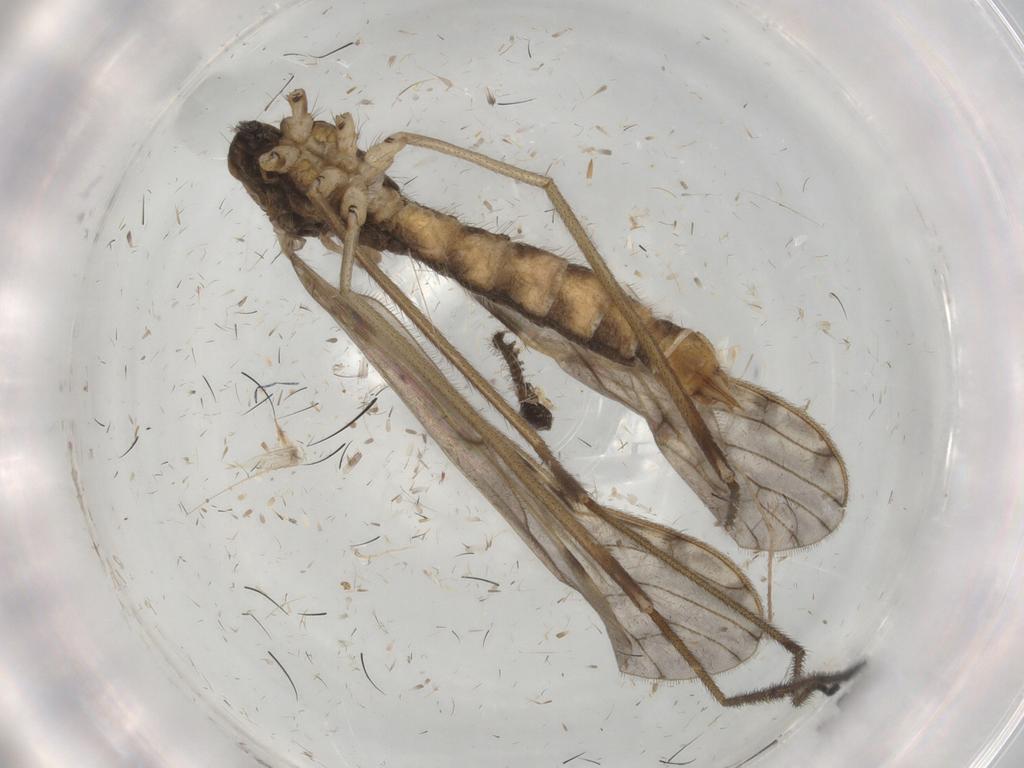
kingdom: Animalia
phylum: Arthropoda
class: Insecta
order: Diptera
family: Limoniidae
